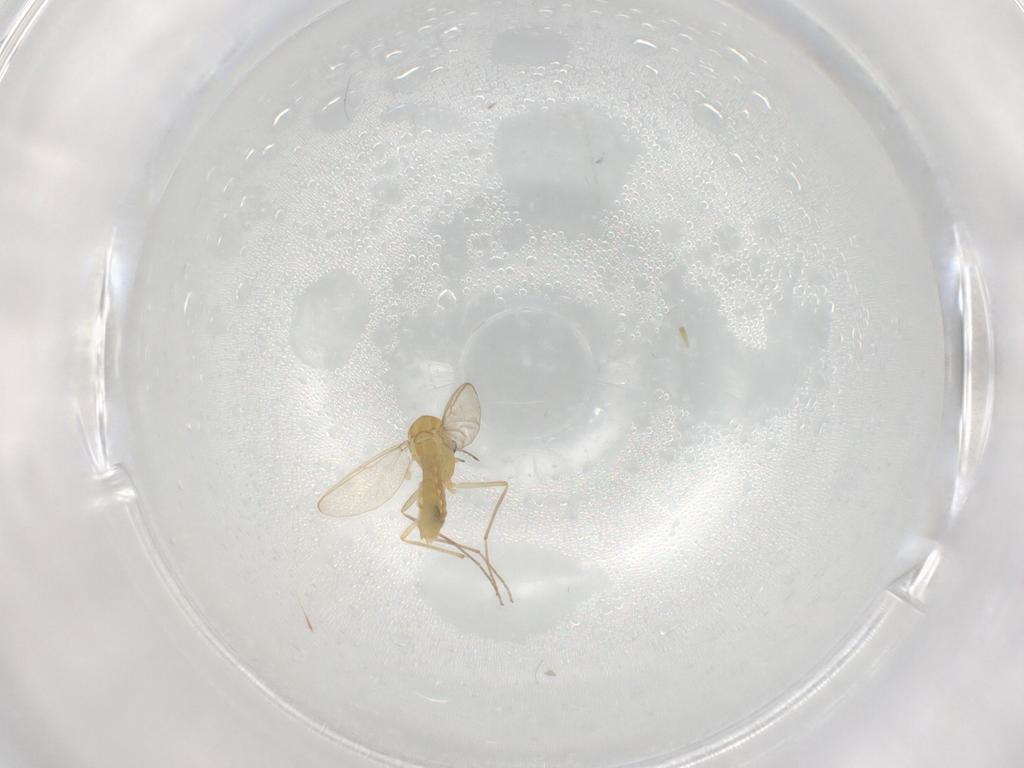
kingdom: Animalia
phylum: Arthropoda
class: Insecta
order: Diptera
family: Chironomidae
